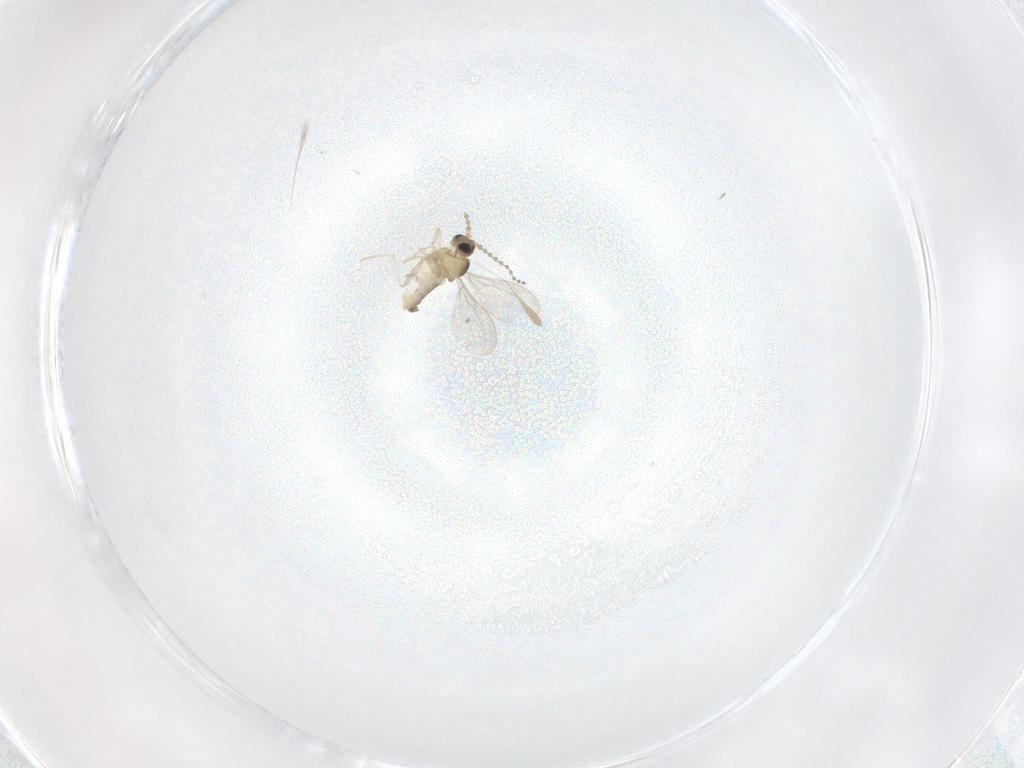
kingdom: Animalia
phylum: Arthropoda
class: Insecta
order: Diptera
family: Cecidomyiidae
